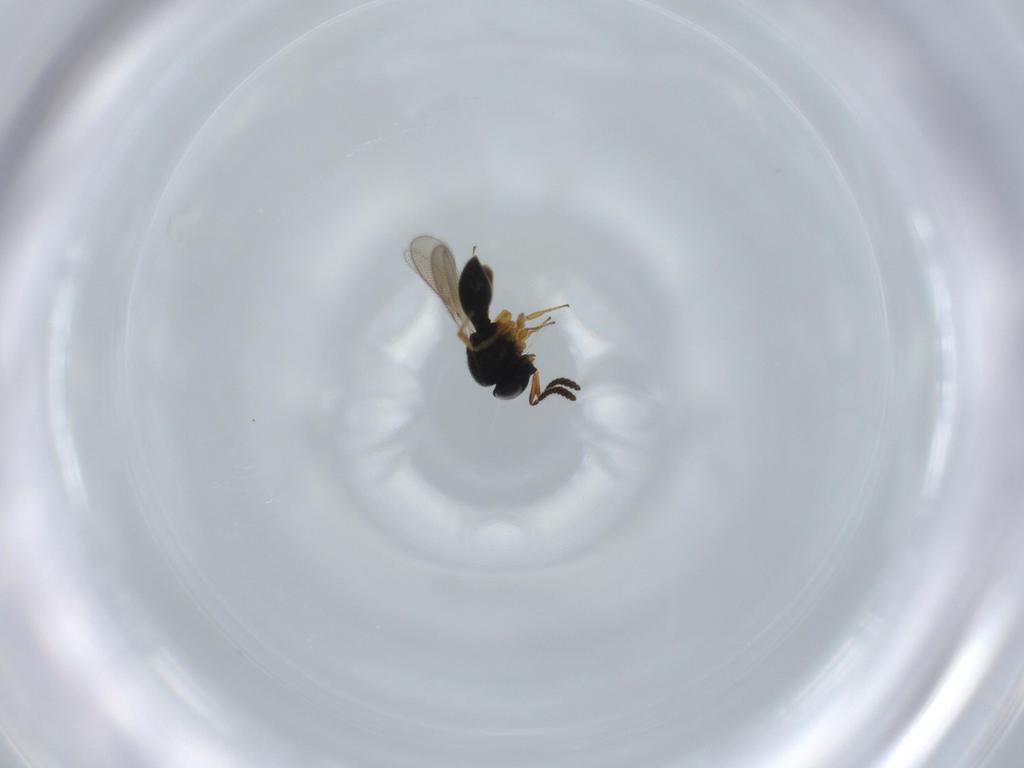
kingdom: Animalia
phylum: Arthropoda
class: Insecta
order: Hymenoptera
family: Scelionidae
